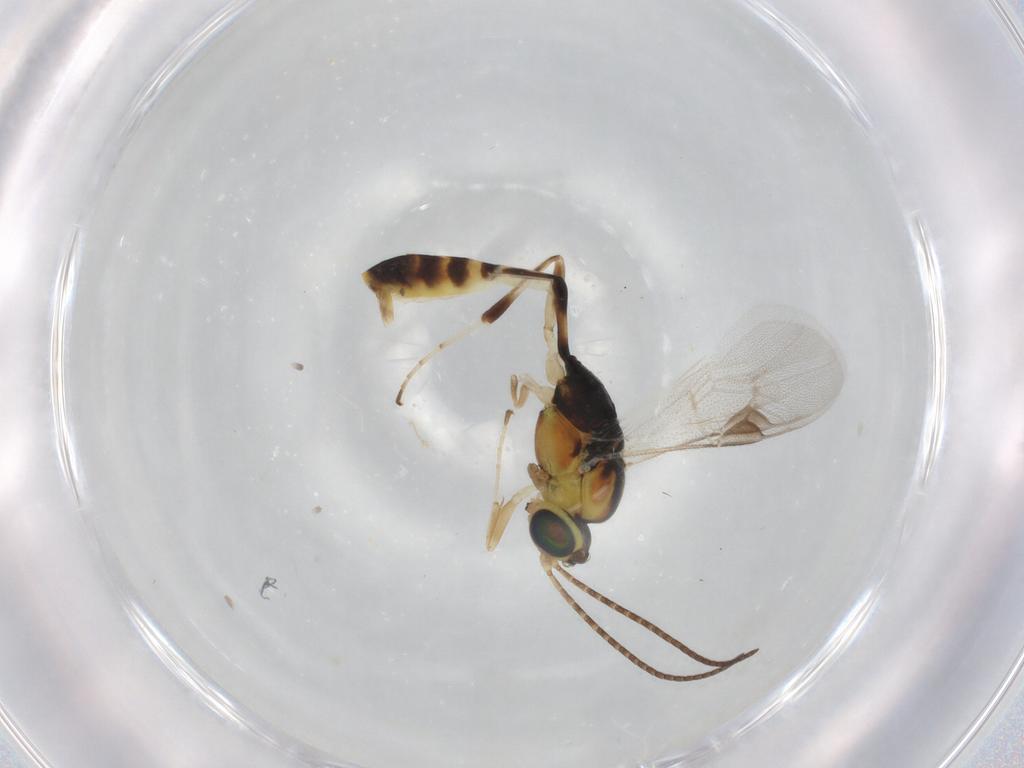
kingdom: Animalia
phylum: Arthropoda
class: Insecta
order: Hymenoptera
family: Ichneumonidae
